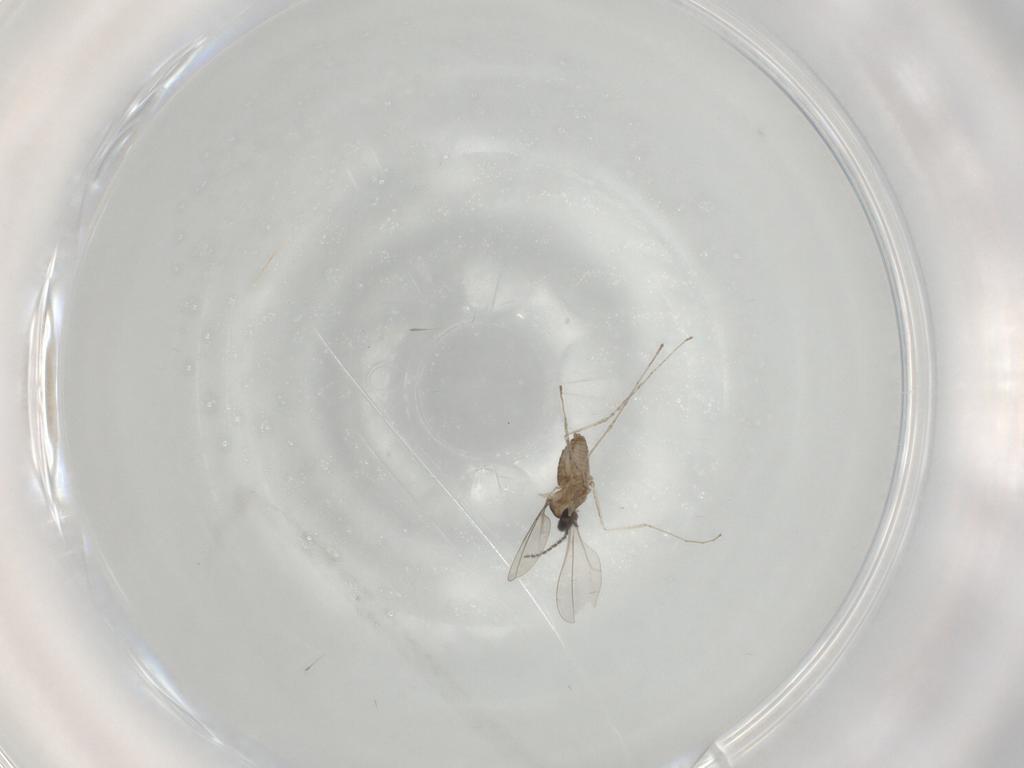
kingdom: Animalia
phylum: Arthropoda
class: Insecta
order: Diptera
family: Cecidomyiidae
